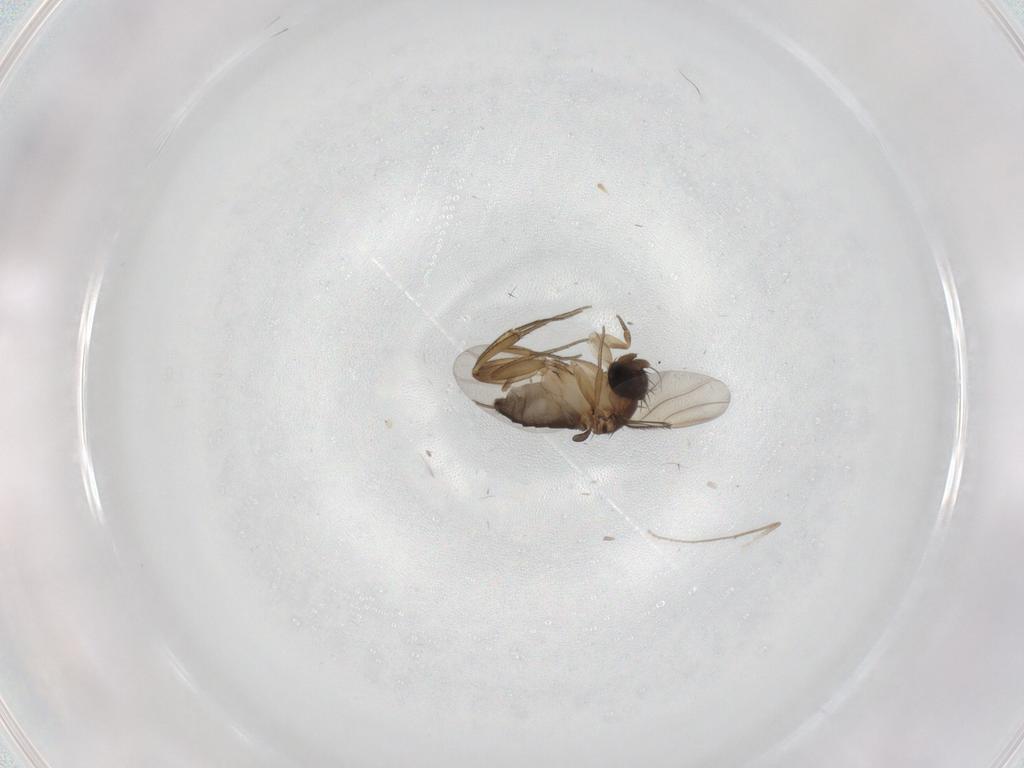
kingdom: Animalia
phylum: Arthropoda
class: Insecta
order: Diptera
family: Phoridae
